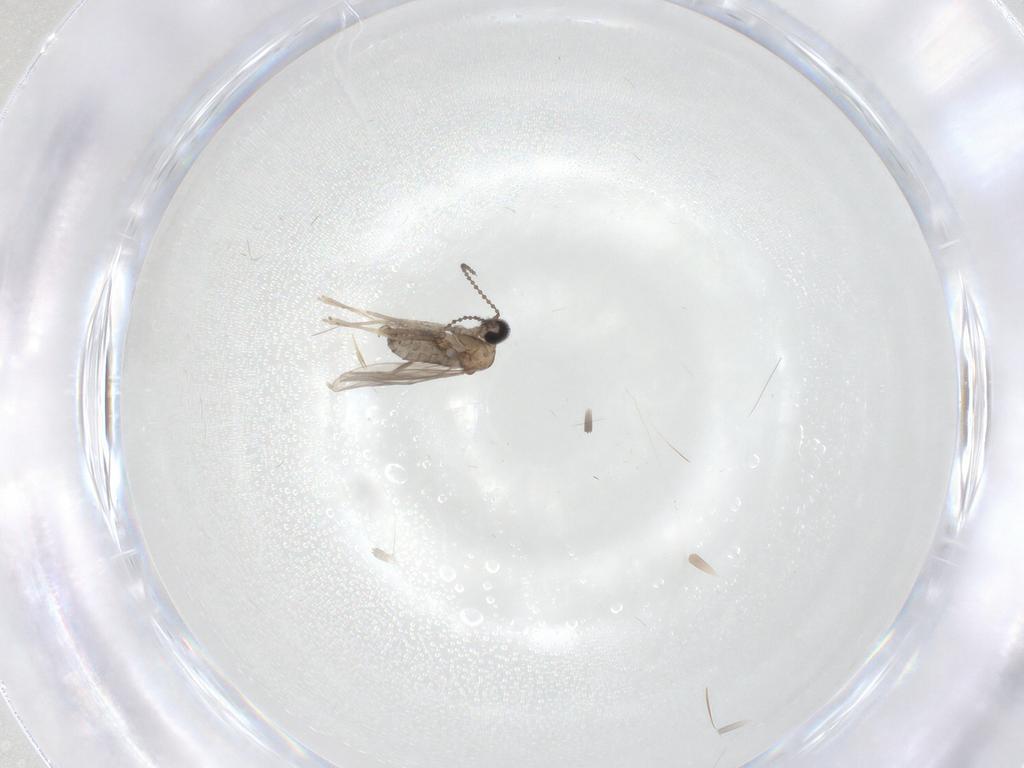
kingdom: Animalia
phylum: Arthropoda
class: Insecta
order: Diptera
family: Cecidomyiidae
